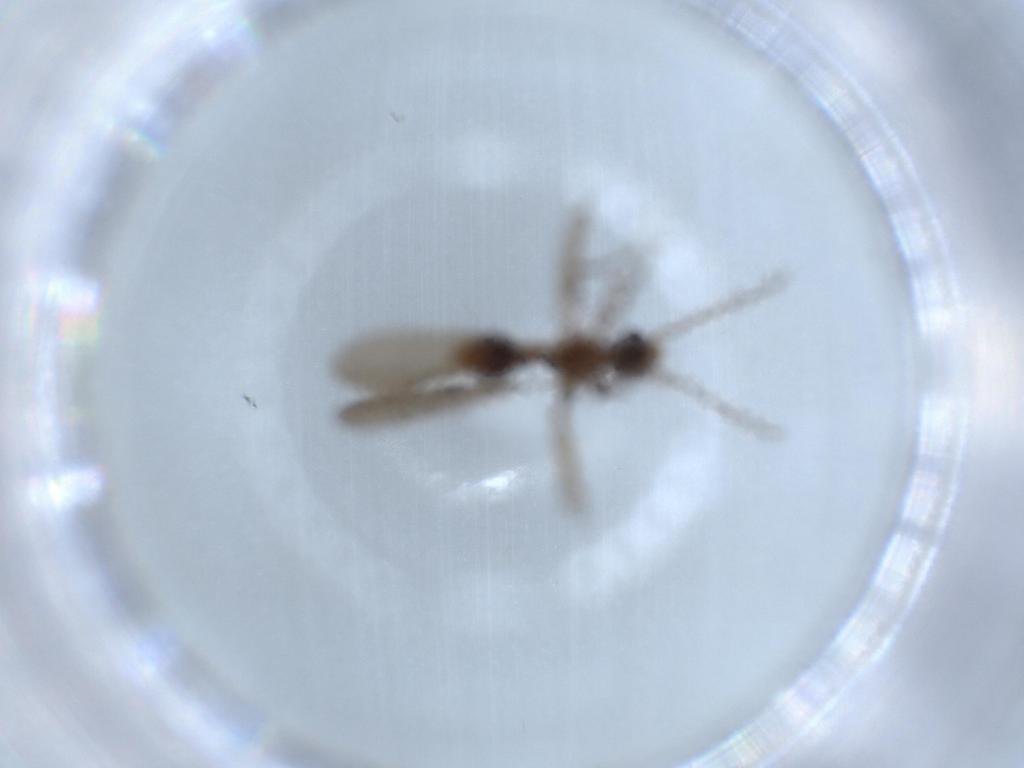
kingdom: Animalia
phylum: Arthropoda
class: Insecta
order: Hymenoptera
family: Formicidae
